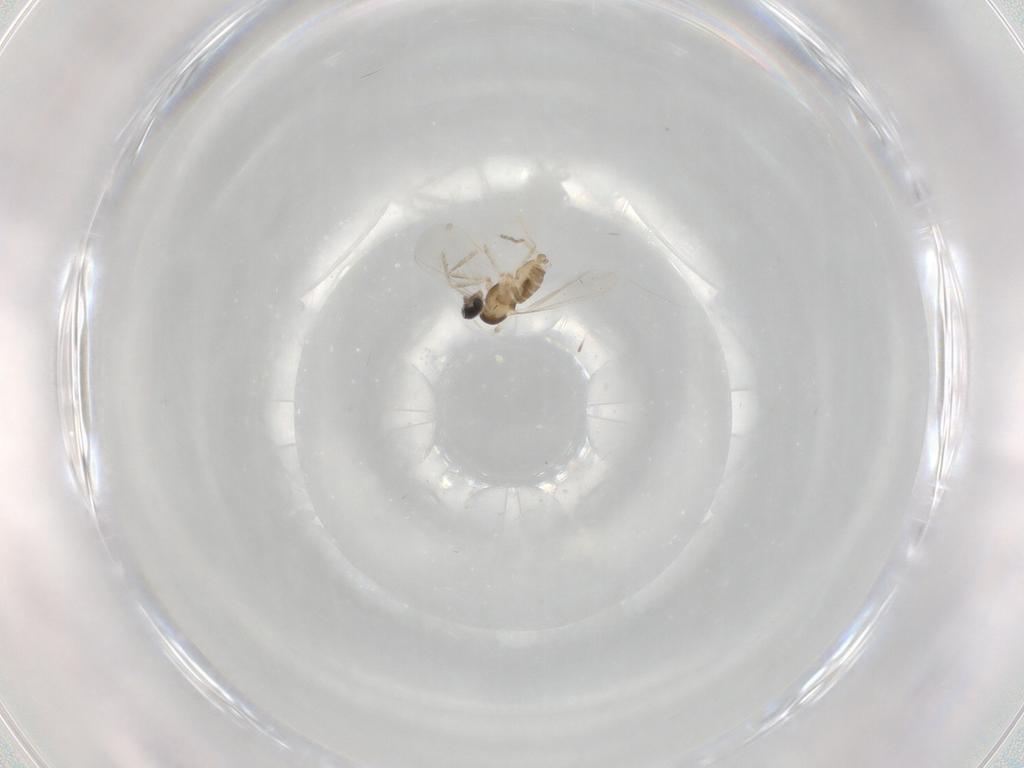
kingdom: Animalia
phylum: Arthropoda
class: Insecta
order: Diptera
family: Cecidomyiidae
